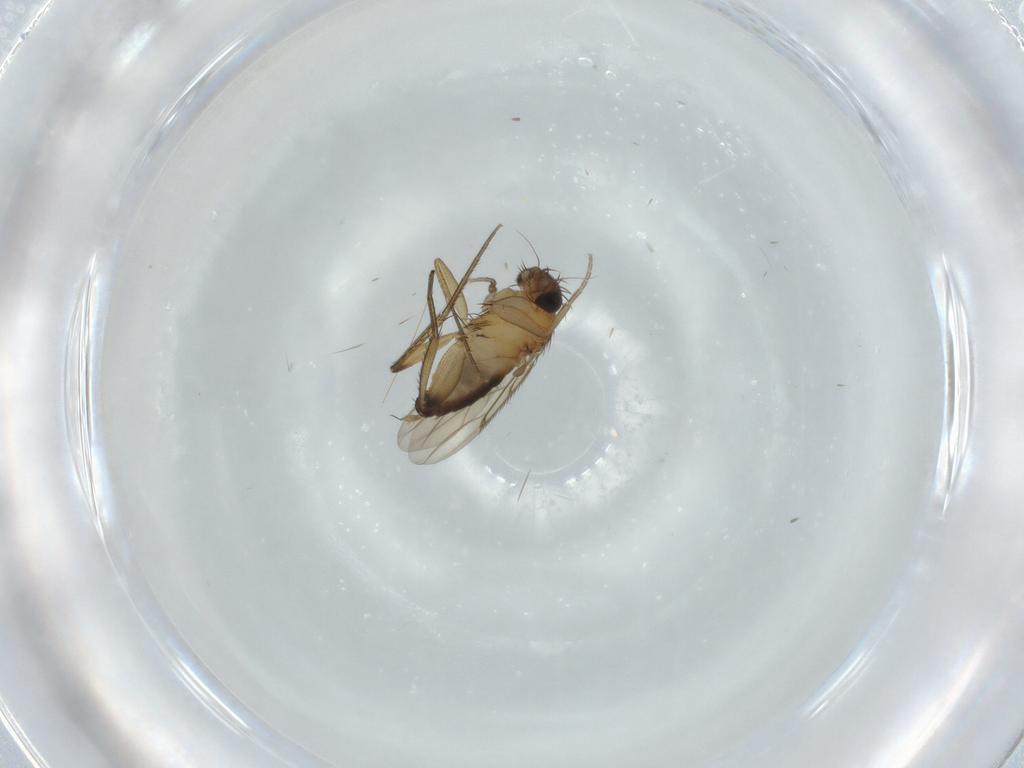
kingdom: Animalia
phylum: Arthropoda
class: Insecta
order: Diptera
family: Phoridae
